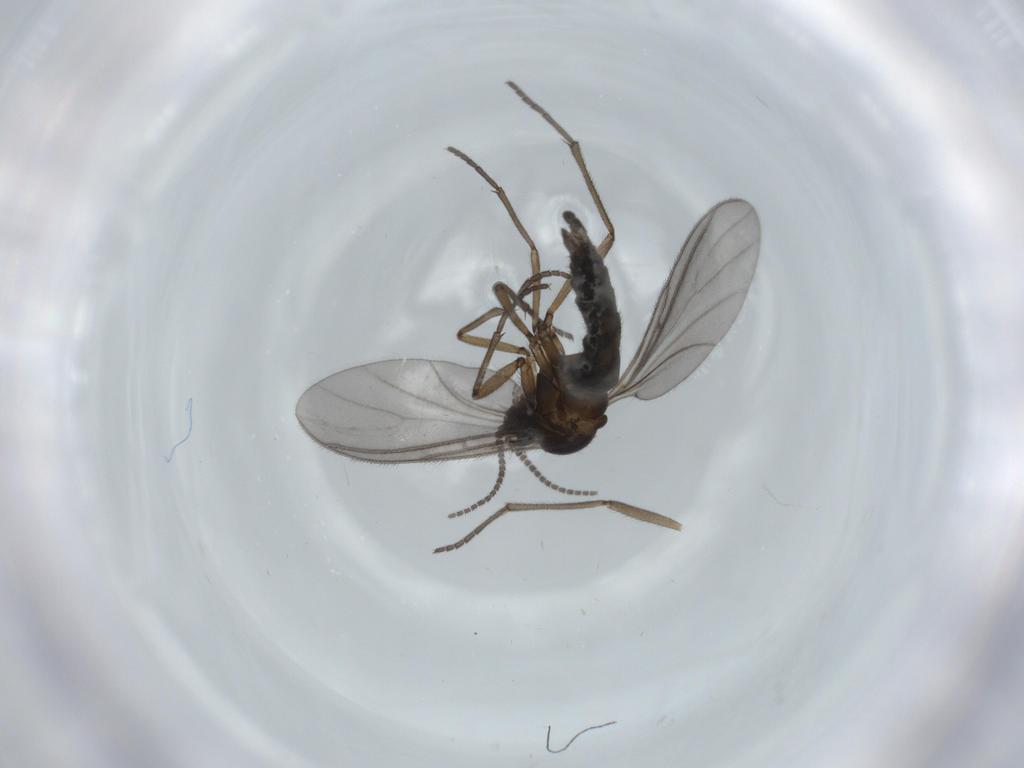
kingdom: Animalia
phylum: Arthropoda
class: Insecta
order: Diptera
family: Sciaridae
